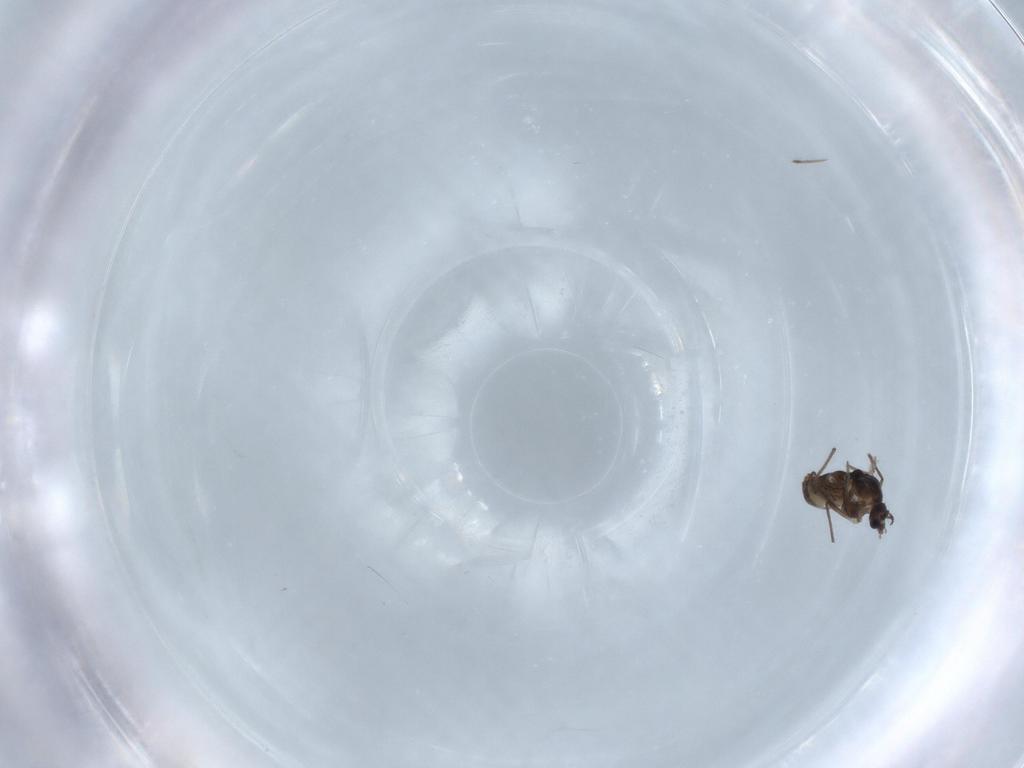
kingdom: Animalia
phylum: Arthropoda
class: Insecta
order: Diptera
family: Chironomidae
